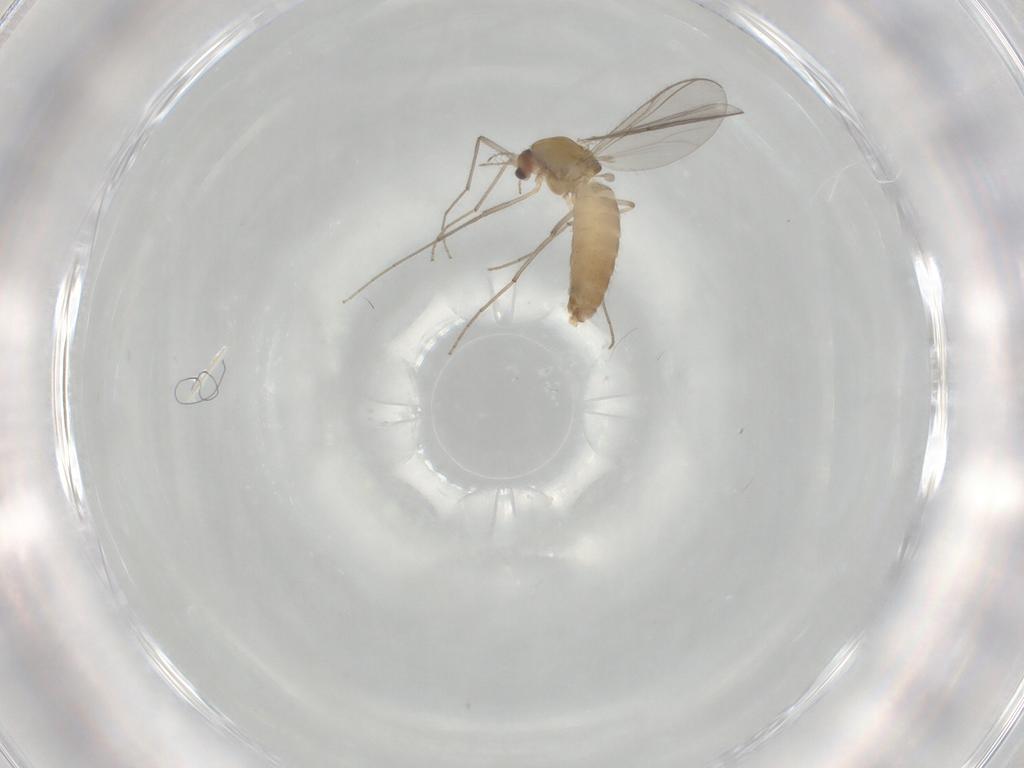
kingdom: Animalia
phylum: Arthropoda
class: Insecta
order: Diptera
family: Chironomidae
